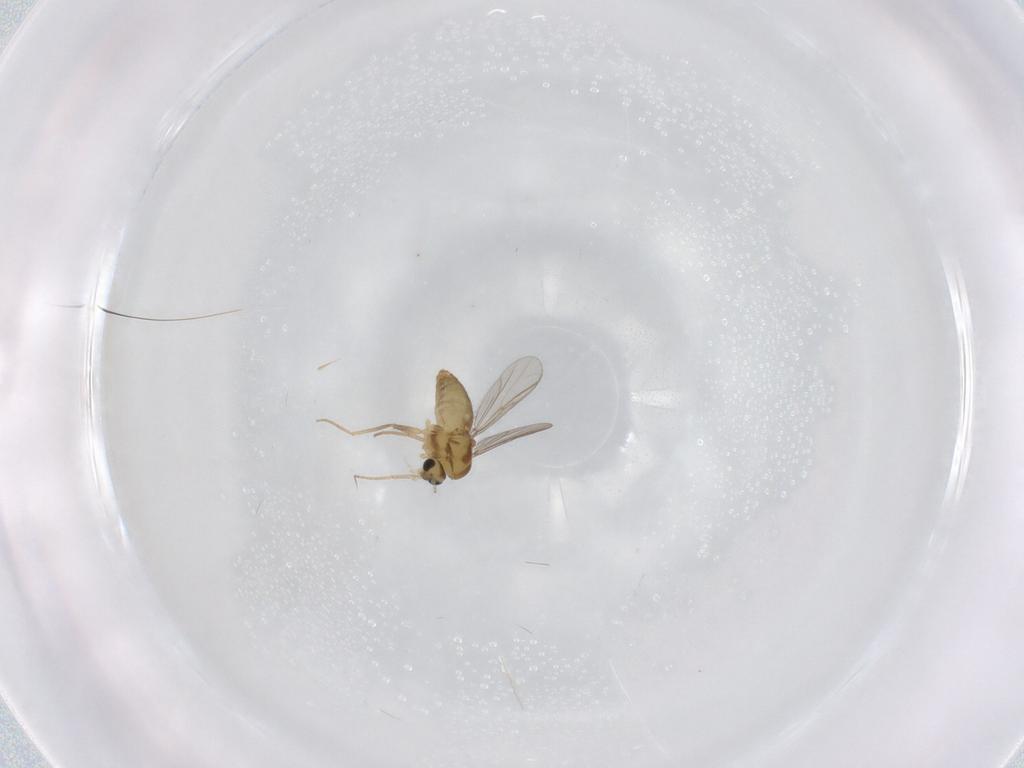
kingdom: Animalia
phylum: Arthropoda
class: Insecta
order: Diptera
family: Chironomidae
